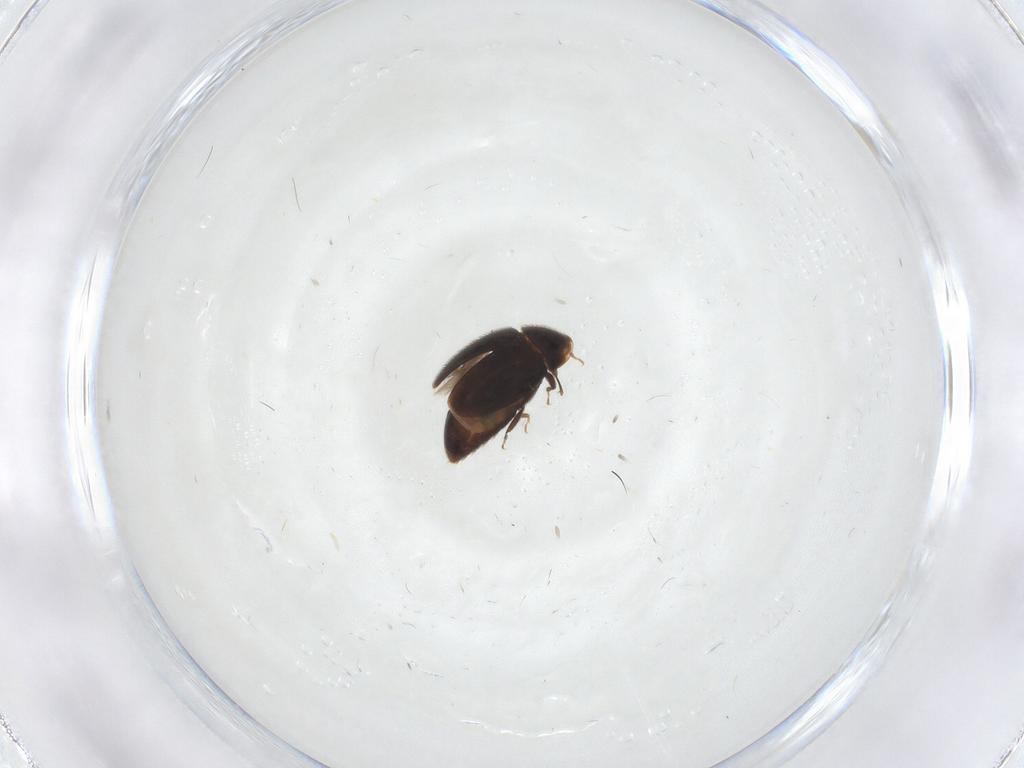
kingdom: Animalia
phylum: Arthropoda
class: Insecta
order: Coleoptera
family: Corylophidae
